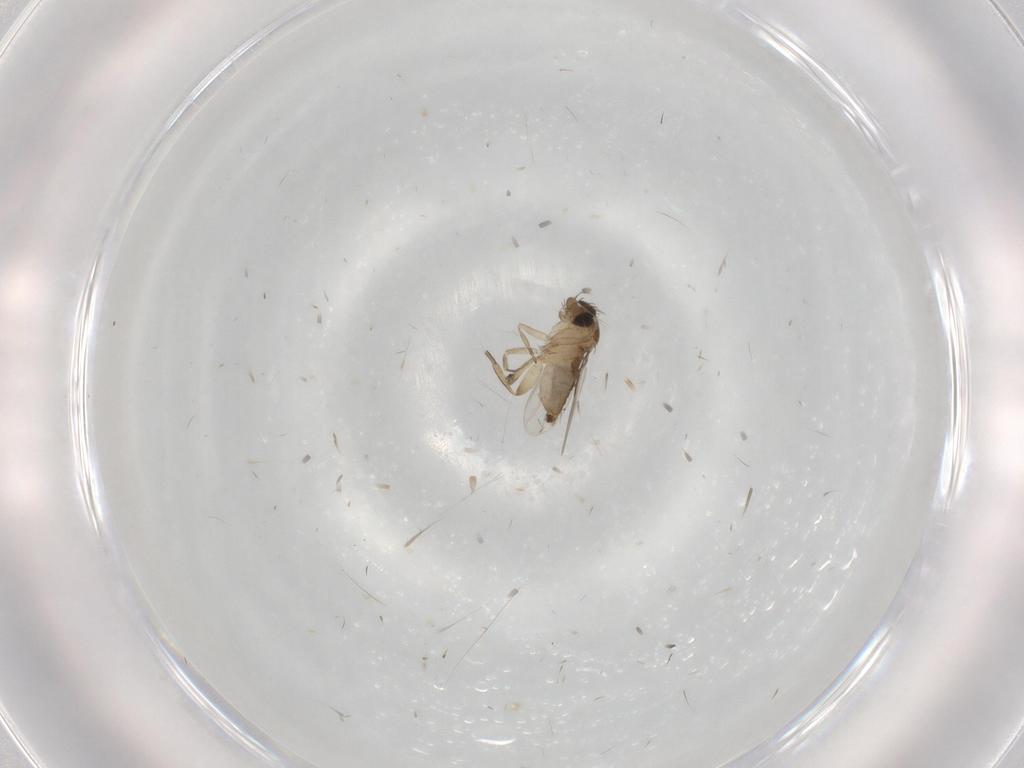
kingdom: Animalia
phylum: Arthropoda
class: Insecta
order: Diptera
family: Phoridae
